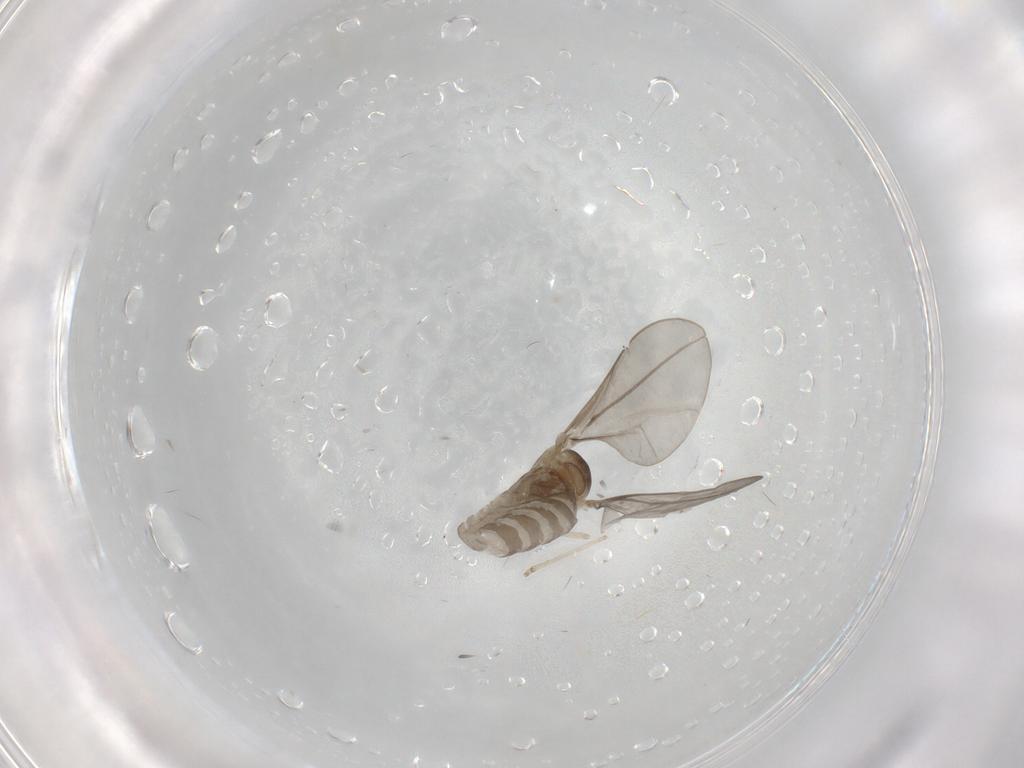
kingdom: Animalia
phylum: Arthropoda
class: Insecta
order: Diptera
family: Cecidomyiidae
